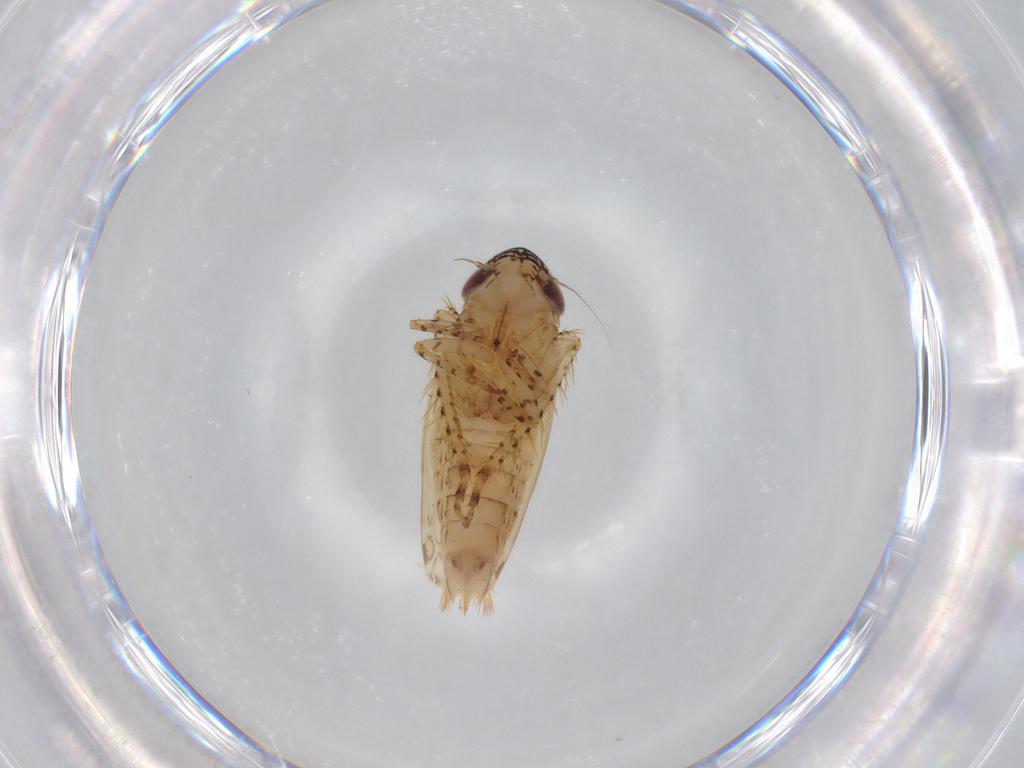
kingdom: Animalia
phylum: Arthropoda
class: Insecta
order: Hemiptera
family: Cicadellidae
